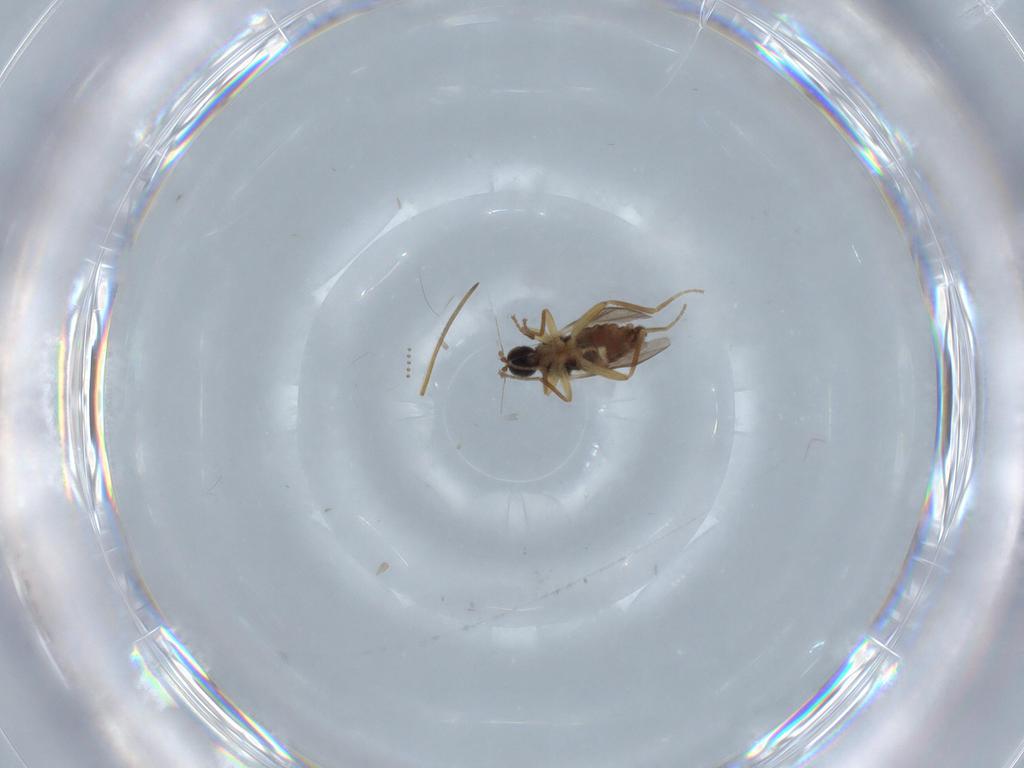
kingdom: Animalia
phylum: Arthropoda
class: Insecta
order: Diptera
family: Hybotidae
